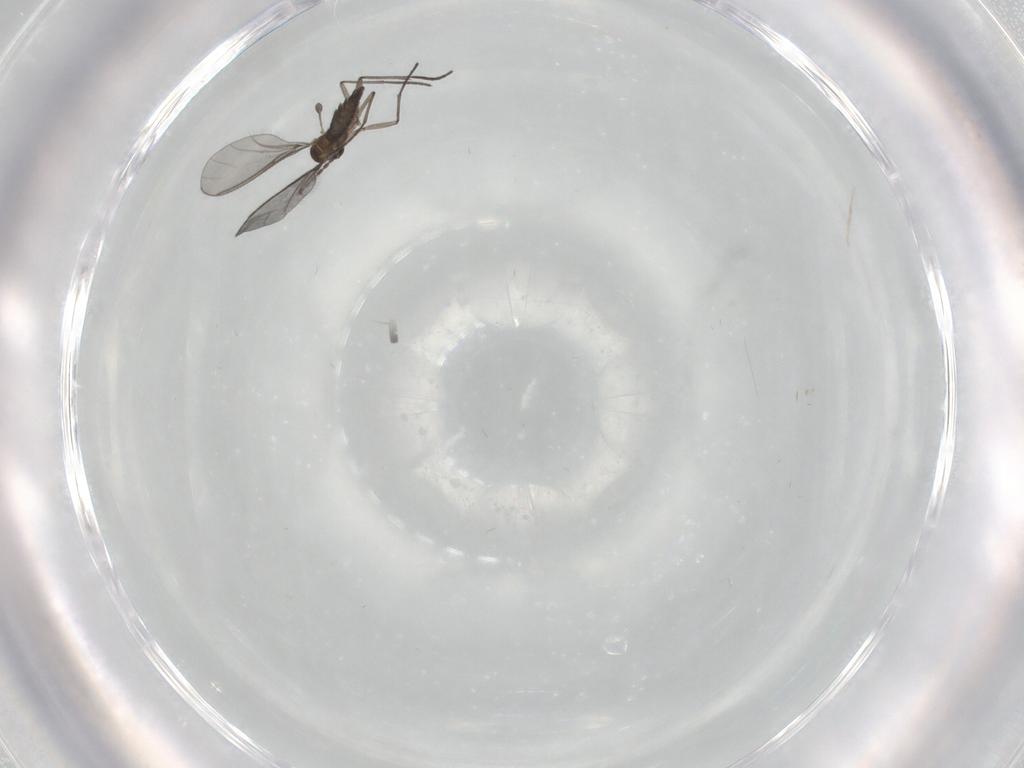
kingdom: Animalia
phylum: Arthropoda
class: Insecta
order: Diptera
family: Sciaridae
